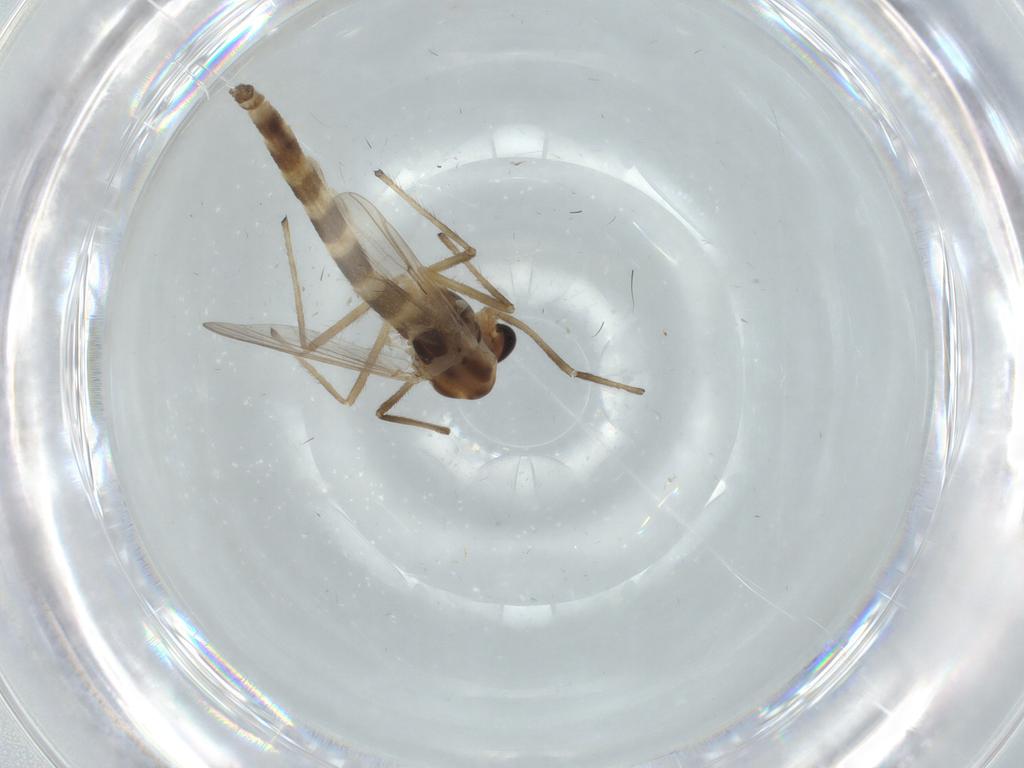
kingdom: Animalia
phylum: Arthropoda
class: Insecta
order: Diptera
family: Chironomidae
